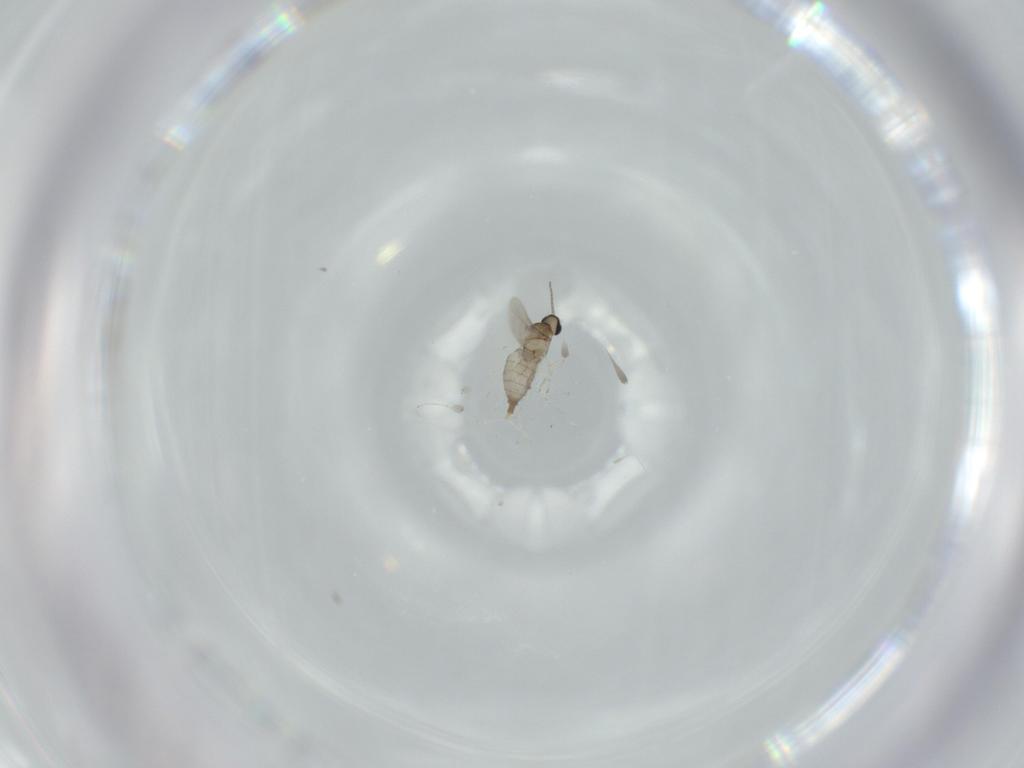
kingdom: Animalia
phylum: Arthropoda
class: Insecta
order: Diptera
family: Cecidomyiidae
